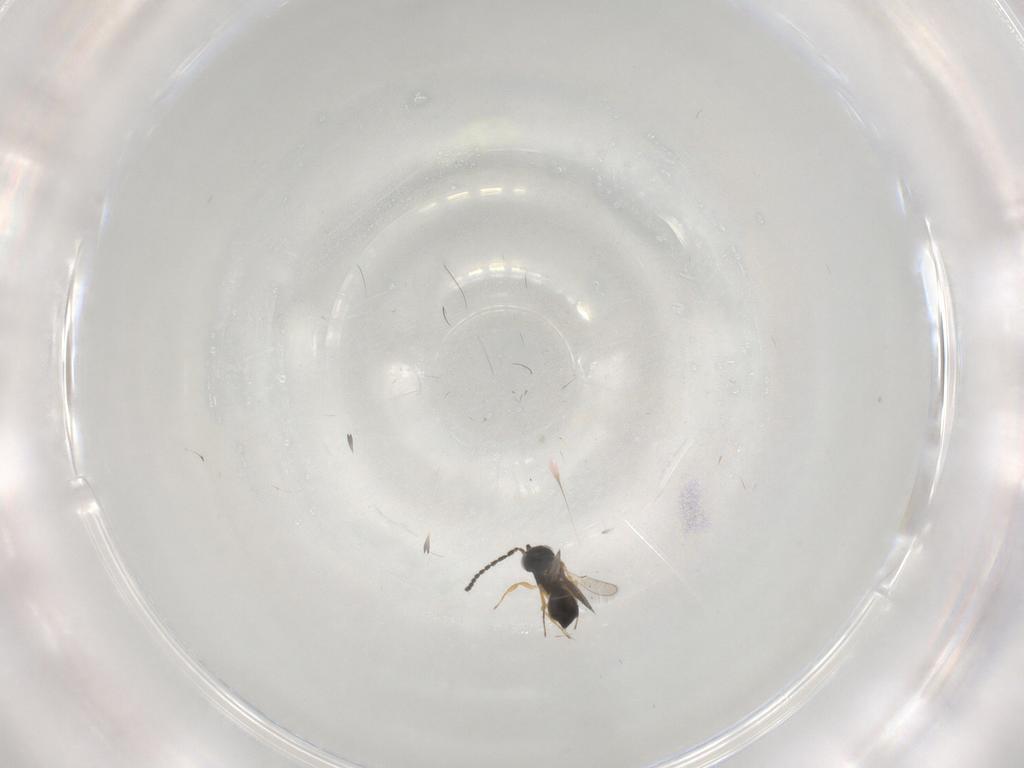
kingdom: Animalia
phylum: Arthropoda
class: Insecta
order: Hymenoptera
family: Scelionidae
